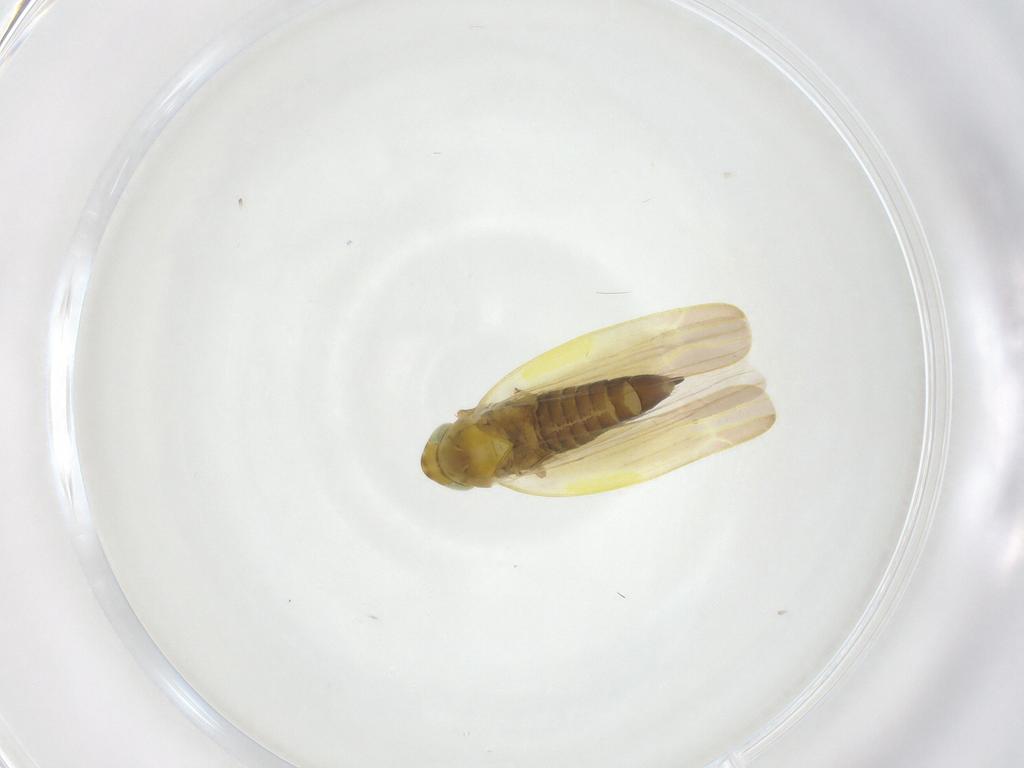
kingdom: Animalia
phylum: Arthropoda
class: Insecta
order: Hemiptera
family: Cicadellidae
